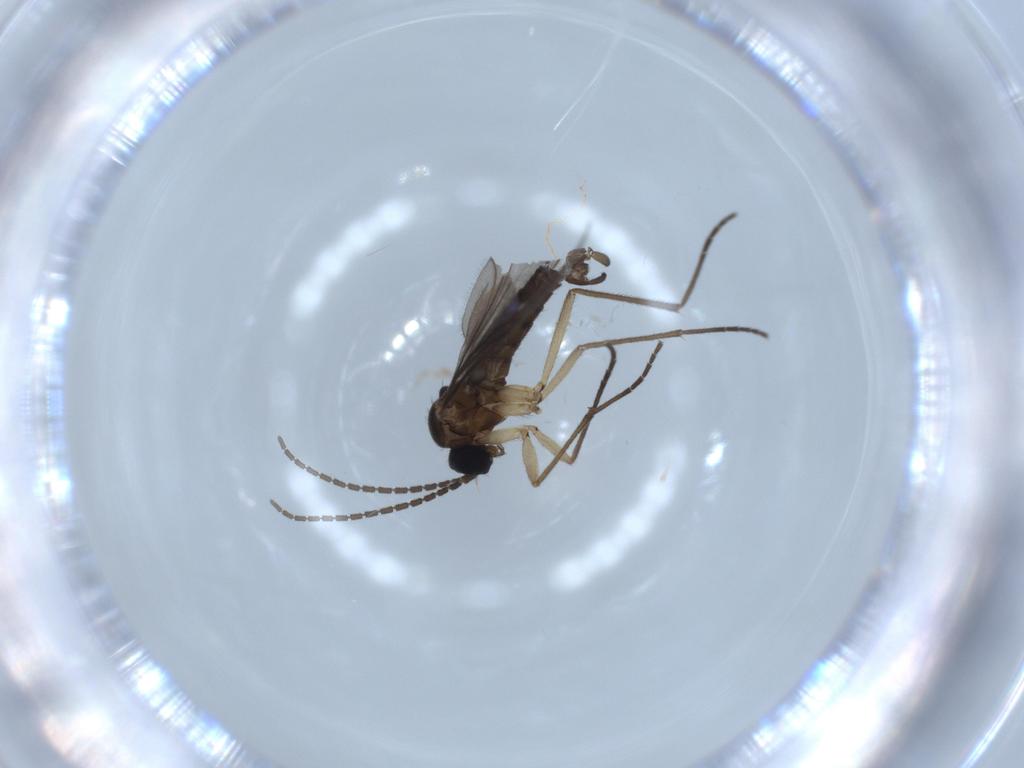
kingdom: Animalia
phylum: Arthropoda
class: Insecta
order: Diptera
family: Sciaridae
